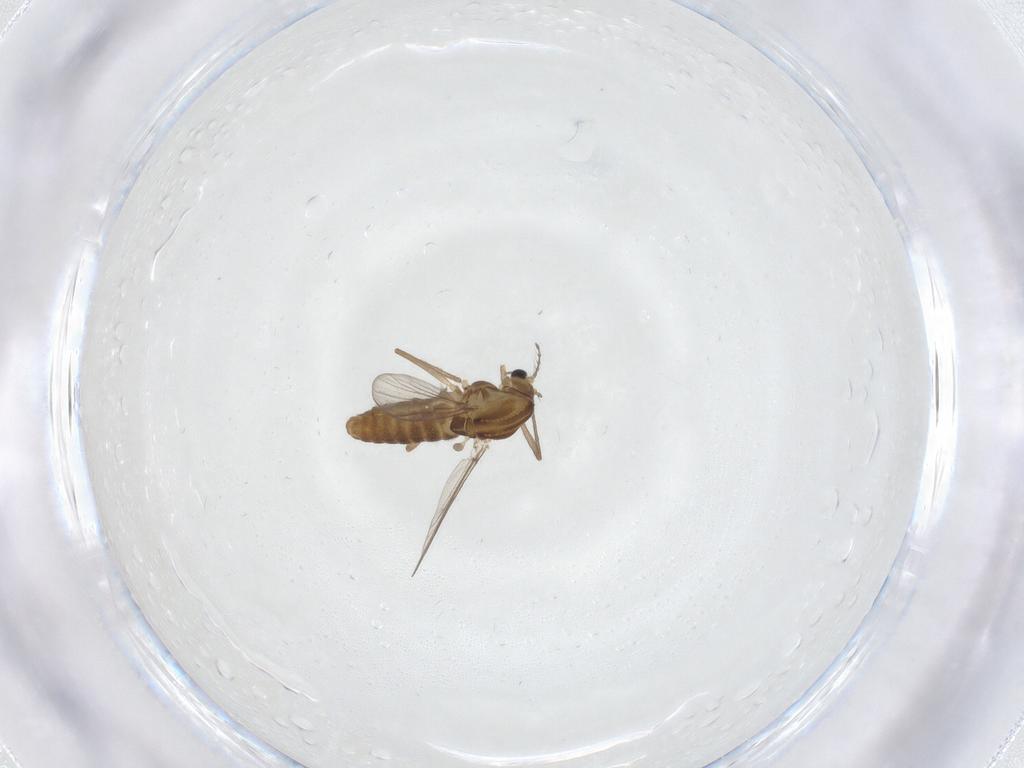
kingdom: Animalia
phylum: Arthropoda
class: Insecta
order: Diptera
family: Chironomidae
